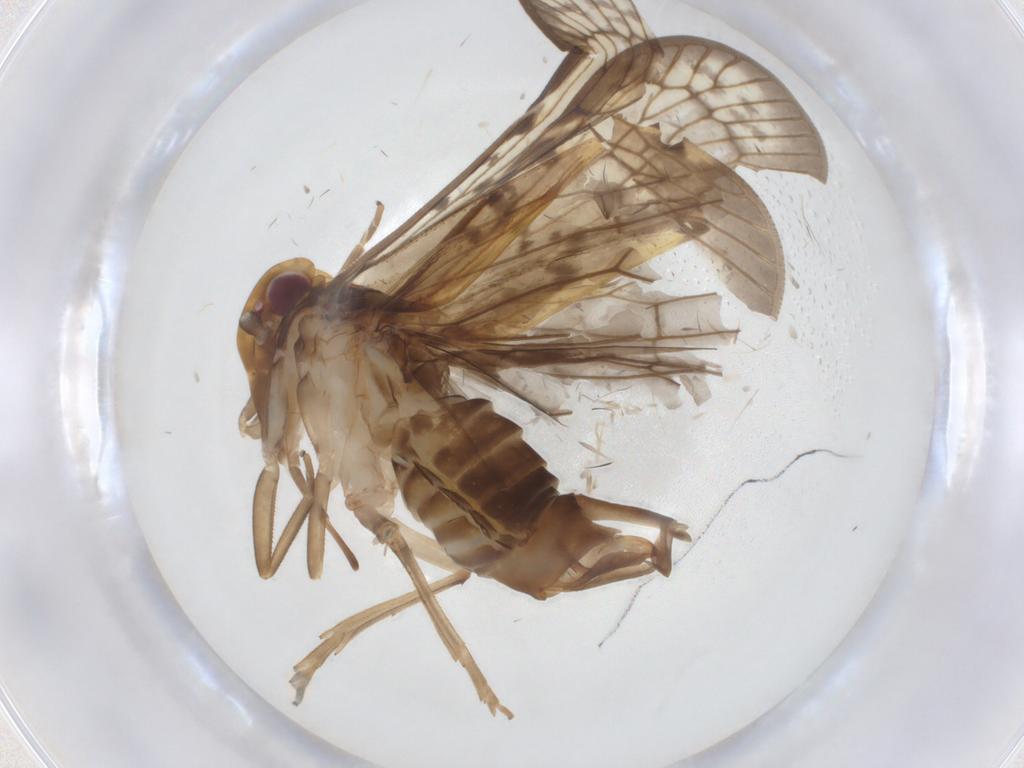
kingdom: Animalia
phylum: Arthropoda
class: Insecta
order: Hemiptera
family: Cixiidae
